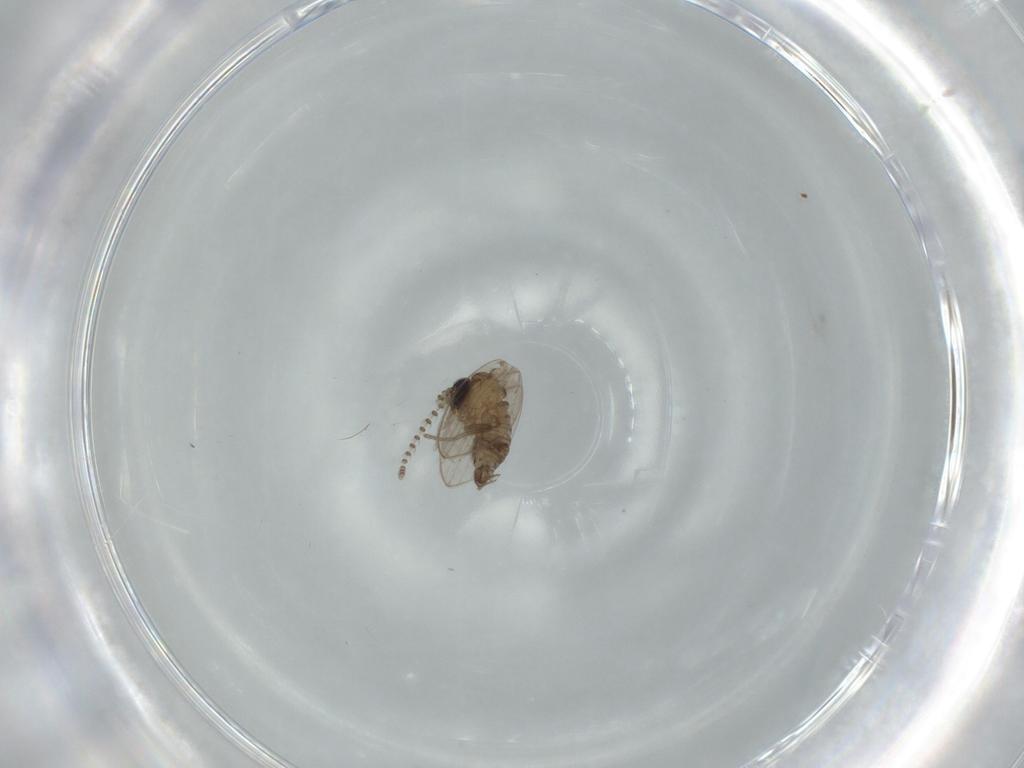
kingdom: Animalia
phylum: Arthropoda
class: Insecta
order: Diptera
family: Psychodidae
